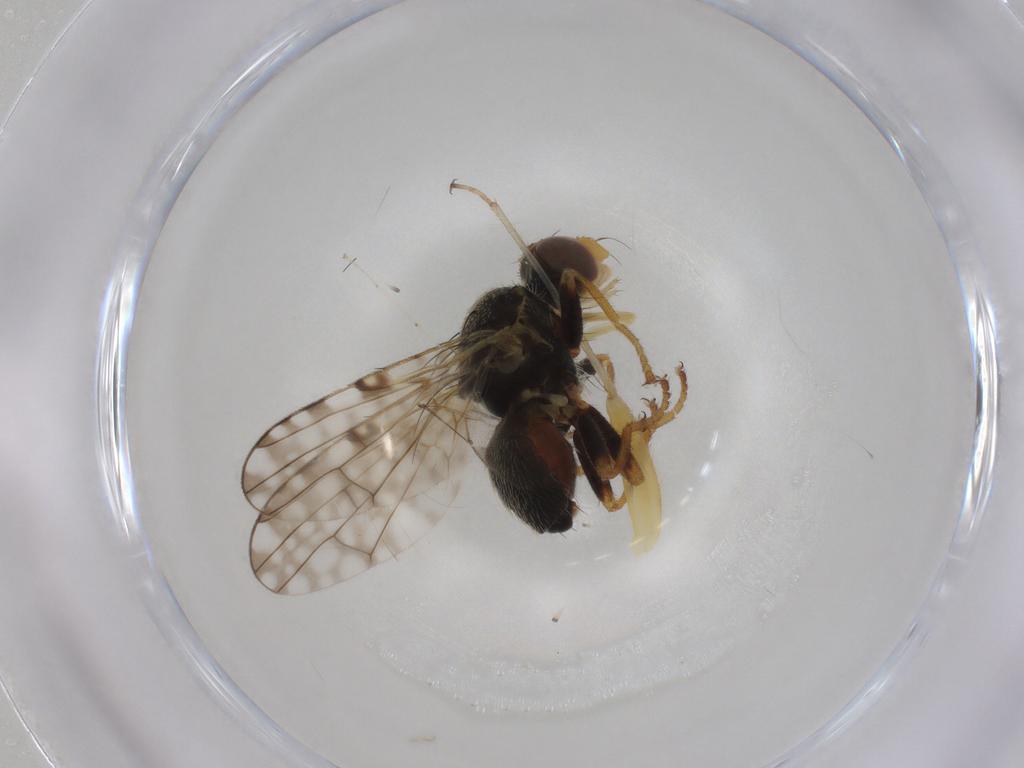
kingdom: Animalia
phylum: Arthropoda
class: Insecta
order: Diptera
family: Tephritidae
